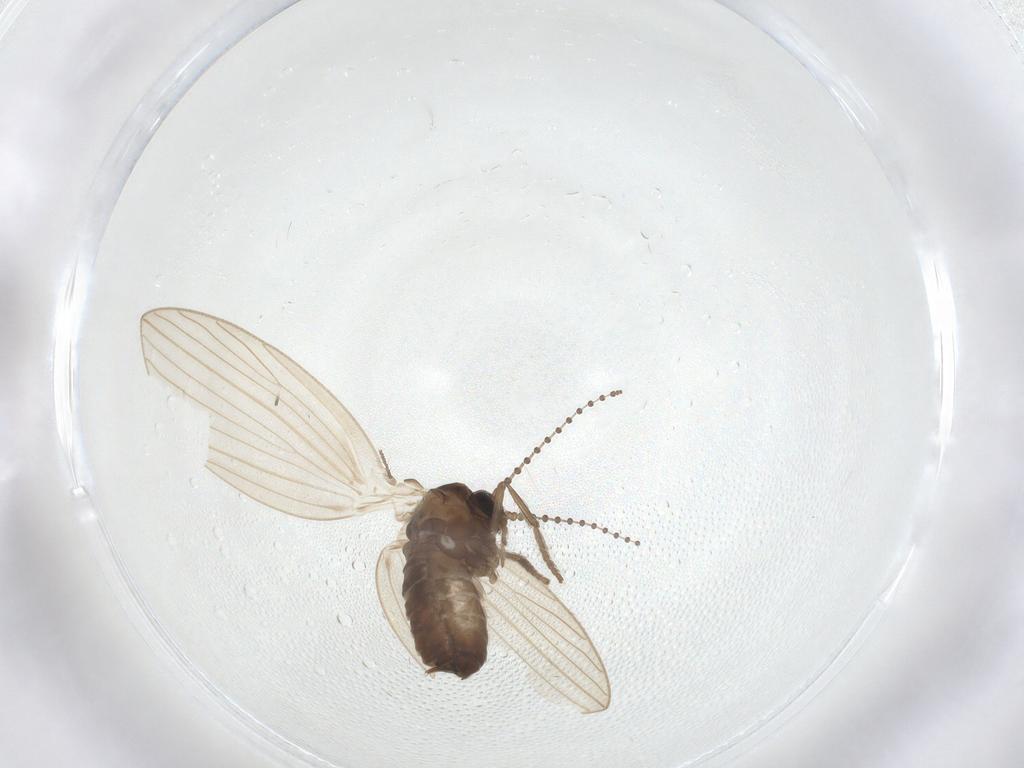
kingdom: Animalia
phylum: Arthropoda
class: Insecta
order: Diptera
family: Psychodidae
